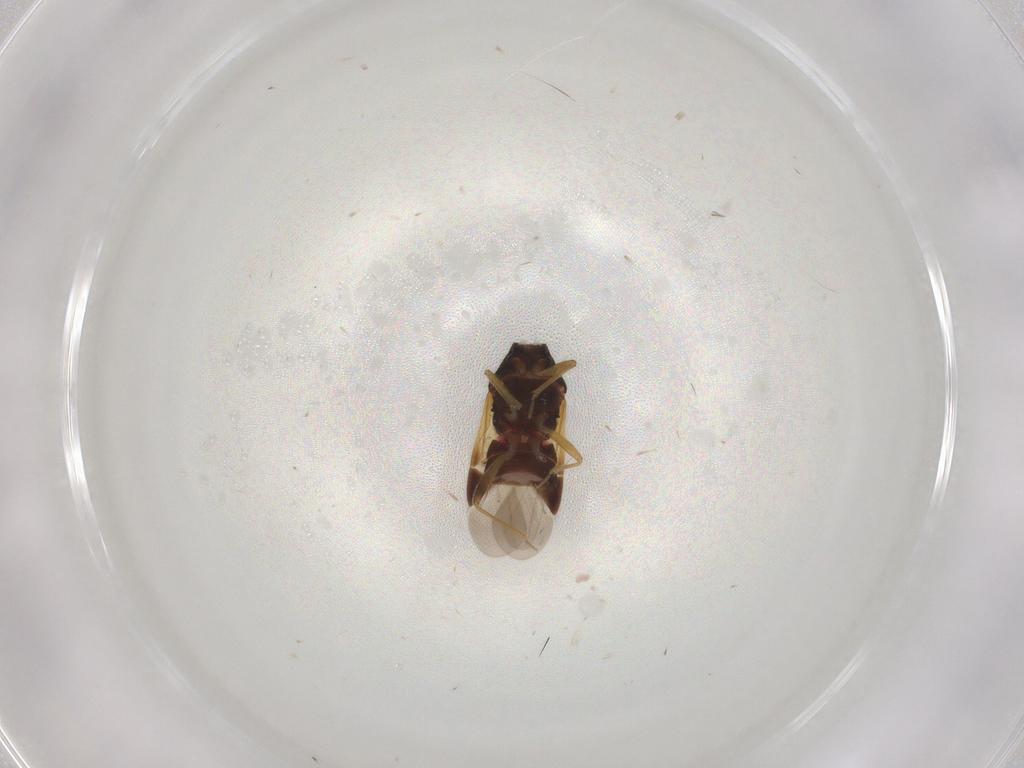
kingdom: Animalia
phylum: Arthropoda
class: Insecta
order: Hemiptera
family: Anthocoridae
